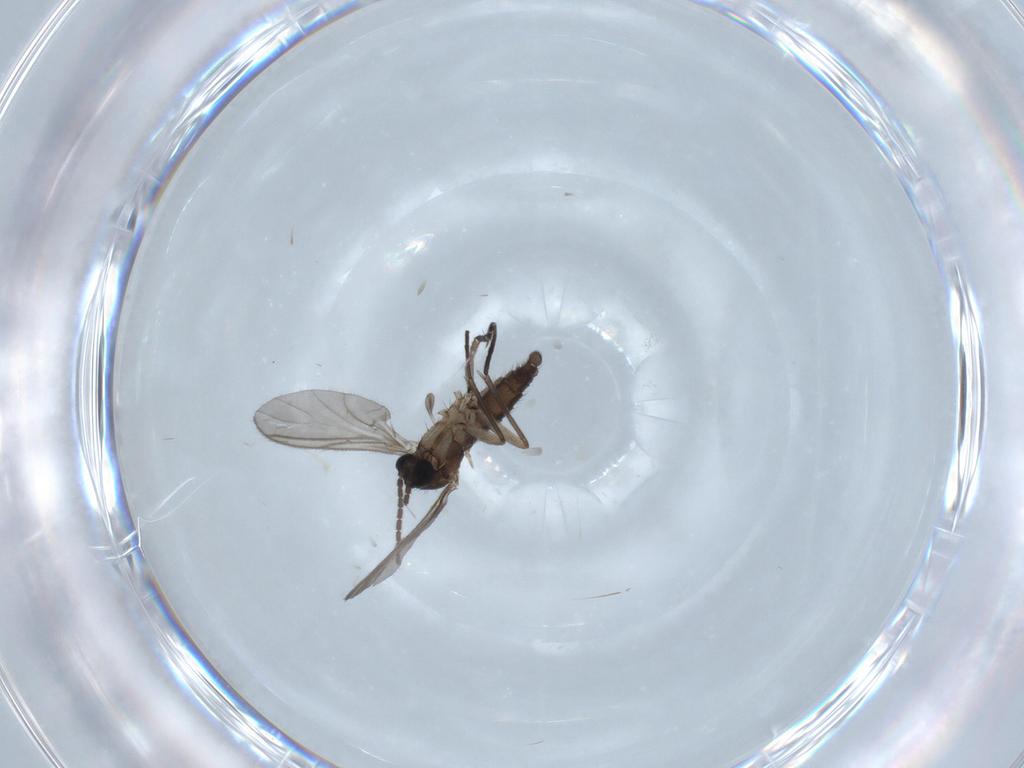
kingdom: Animalia
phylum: Arthropoda
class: Insecta
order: Diptera
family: Sciaridae
